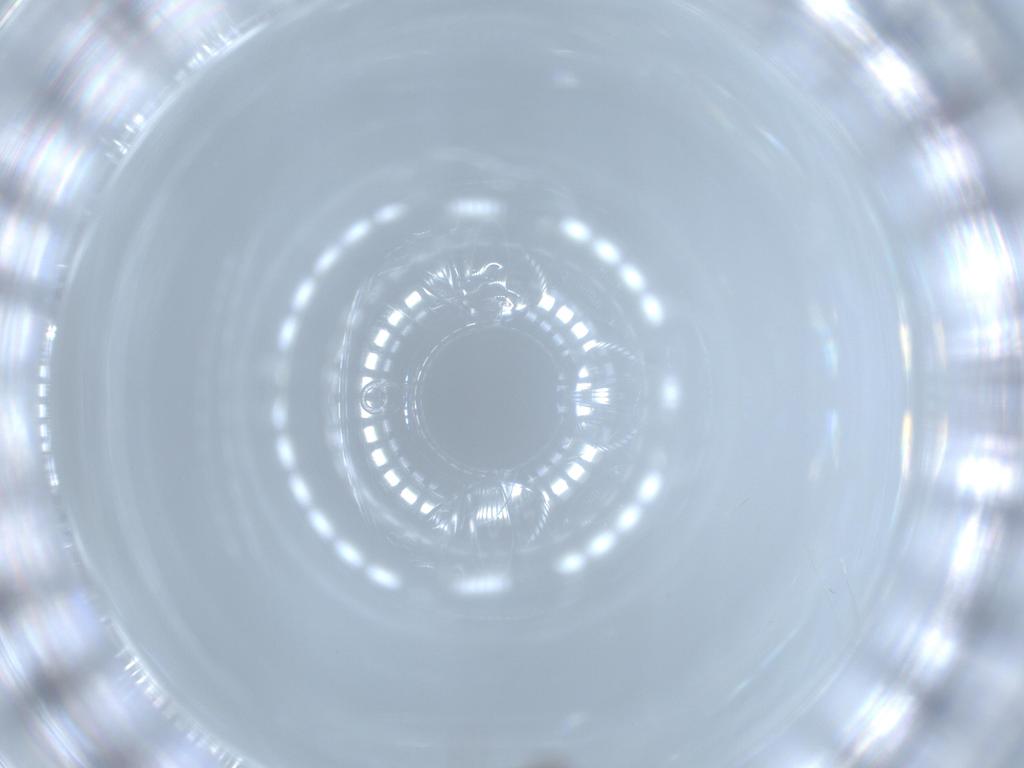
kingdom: Animalia
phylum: Arthropoda
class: Insecta
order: Diptera
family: Chironomidae
